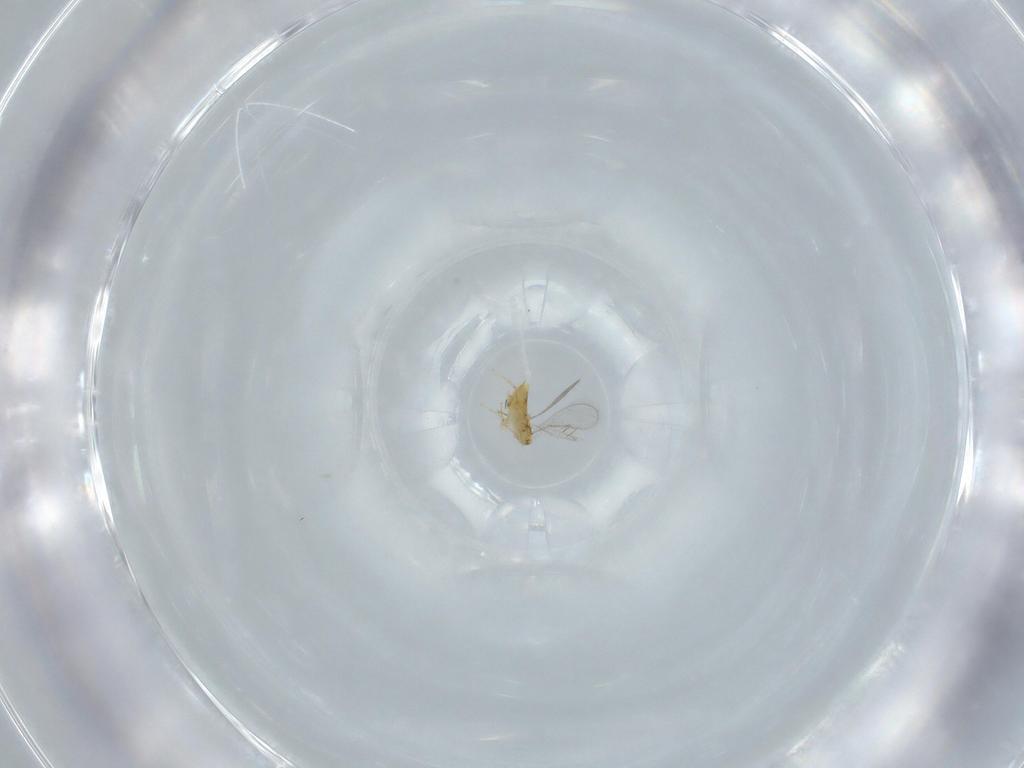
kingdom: Animalia
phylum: Arthropoda
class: Insecta
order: Hymenoptera
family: Aphelinidae
